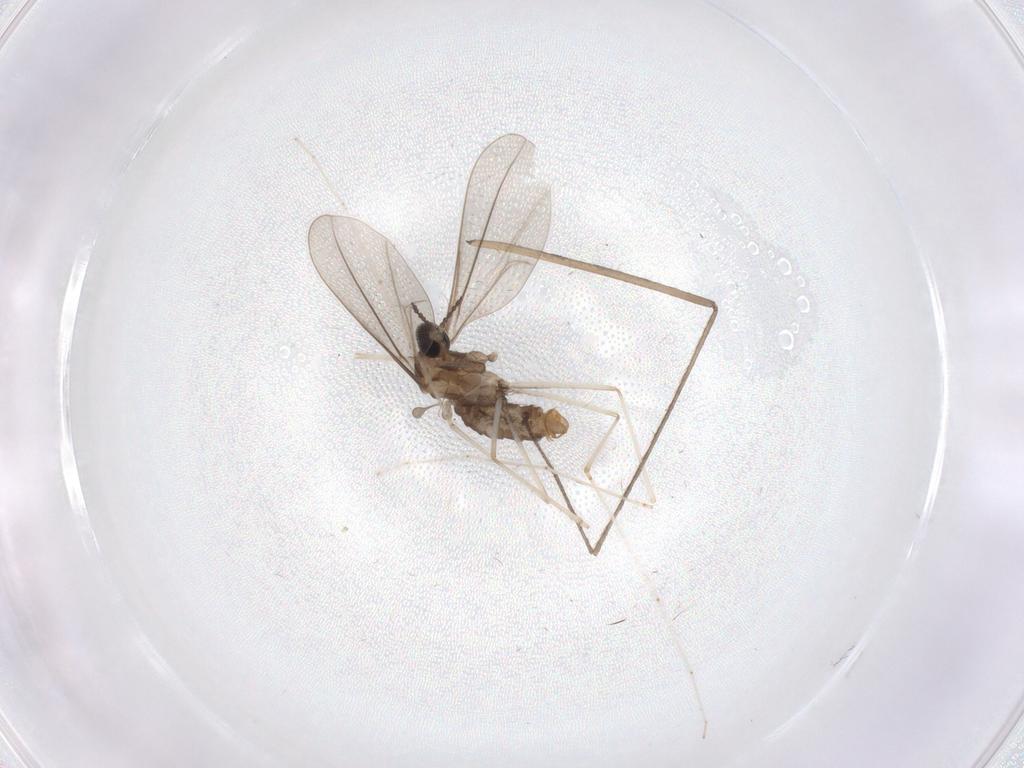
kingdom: Animalia
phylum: Arthropoda
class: Insecta
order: Diptera
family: Cecidomyiidae
